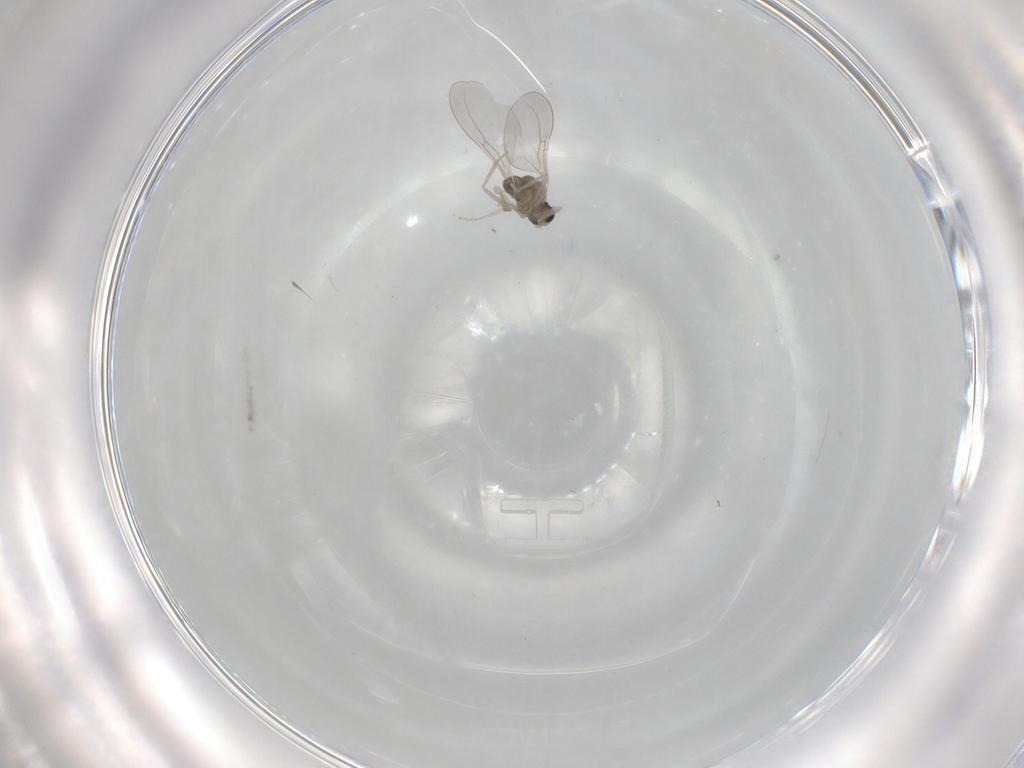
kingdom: Animalia
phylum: Arthropoda
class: Insecta
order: Diptera
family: Cecidomyiidae
